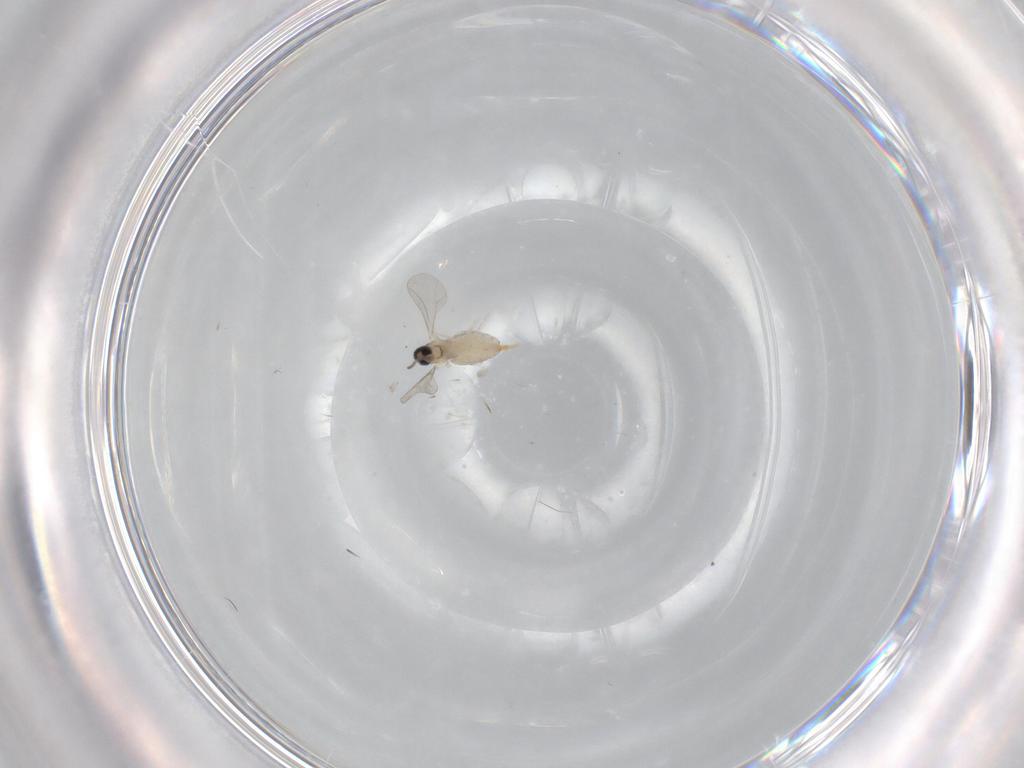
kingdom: Animalia
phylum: Arthropoda
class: Insecta
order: Diptera
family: Cecidomyiidae
